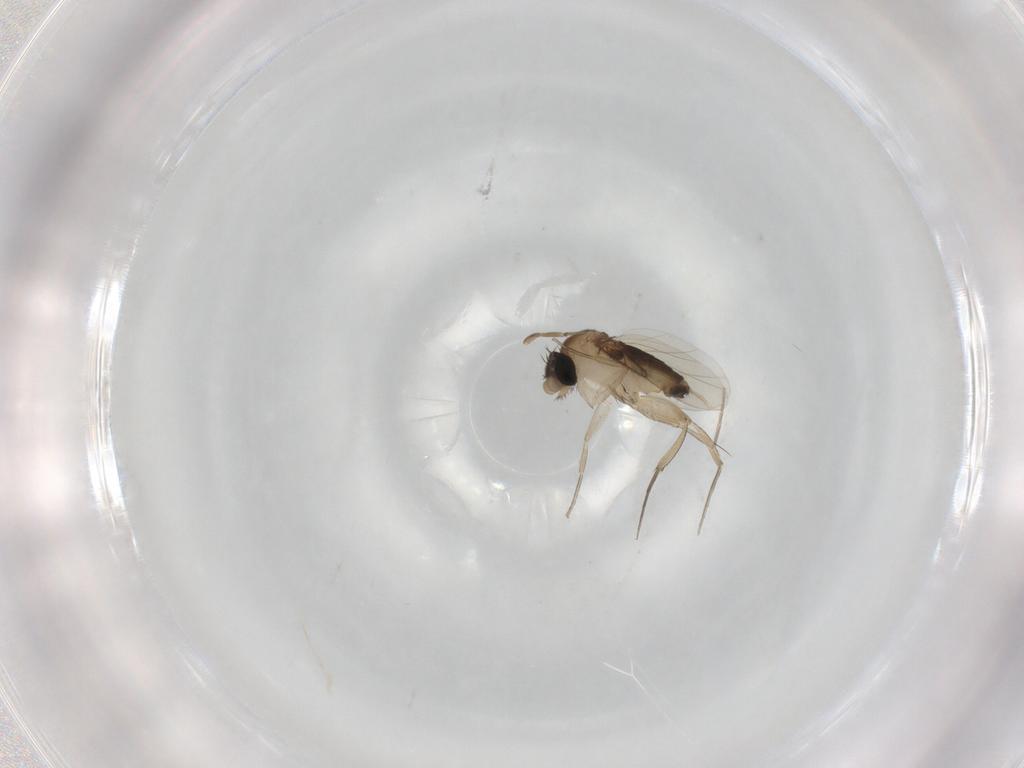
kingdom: Animalia
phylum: Arthropoda
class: Insecta
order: Diptera
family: Phoridae
